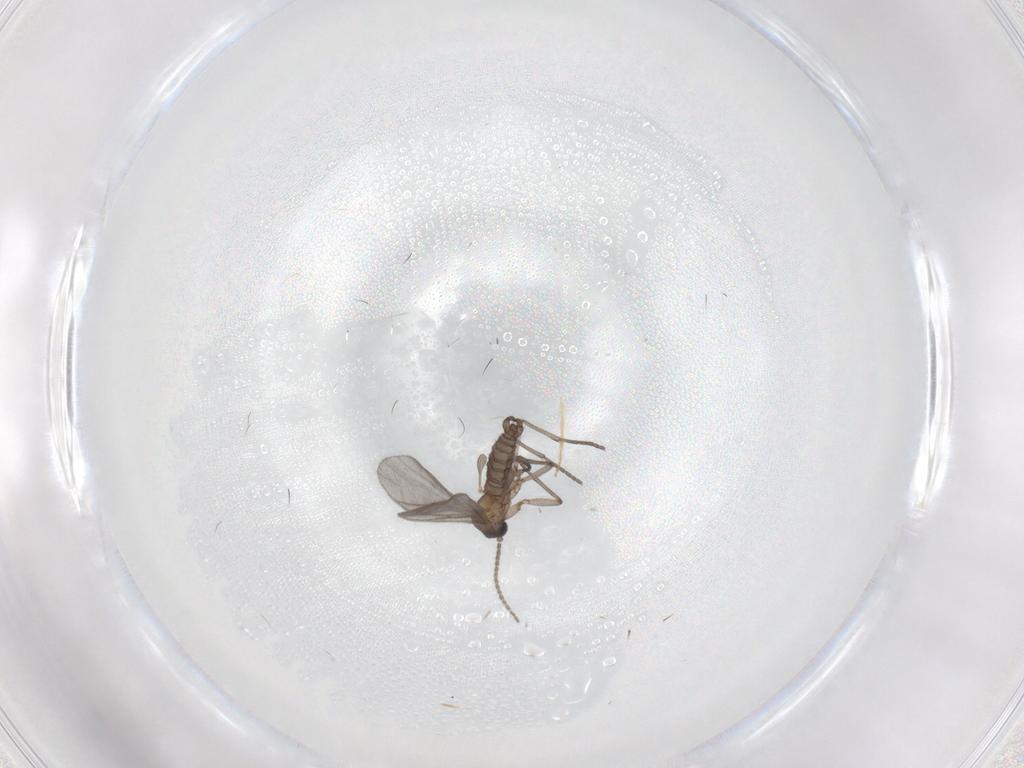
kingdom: Animalia
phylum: Arthropoda
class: Insecta
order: Diptera
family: Sciaridae
